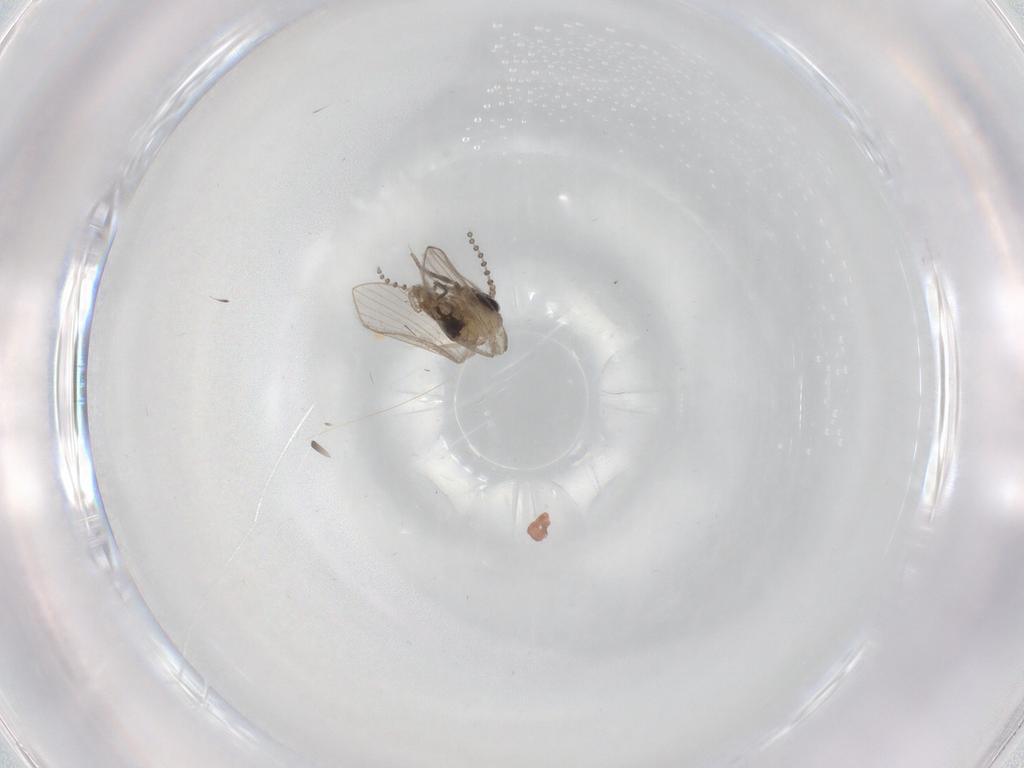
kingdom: Animalia
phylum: Arthropoda
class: Insecta
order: Diptera
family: Psychodidae
